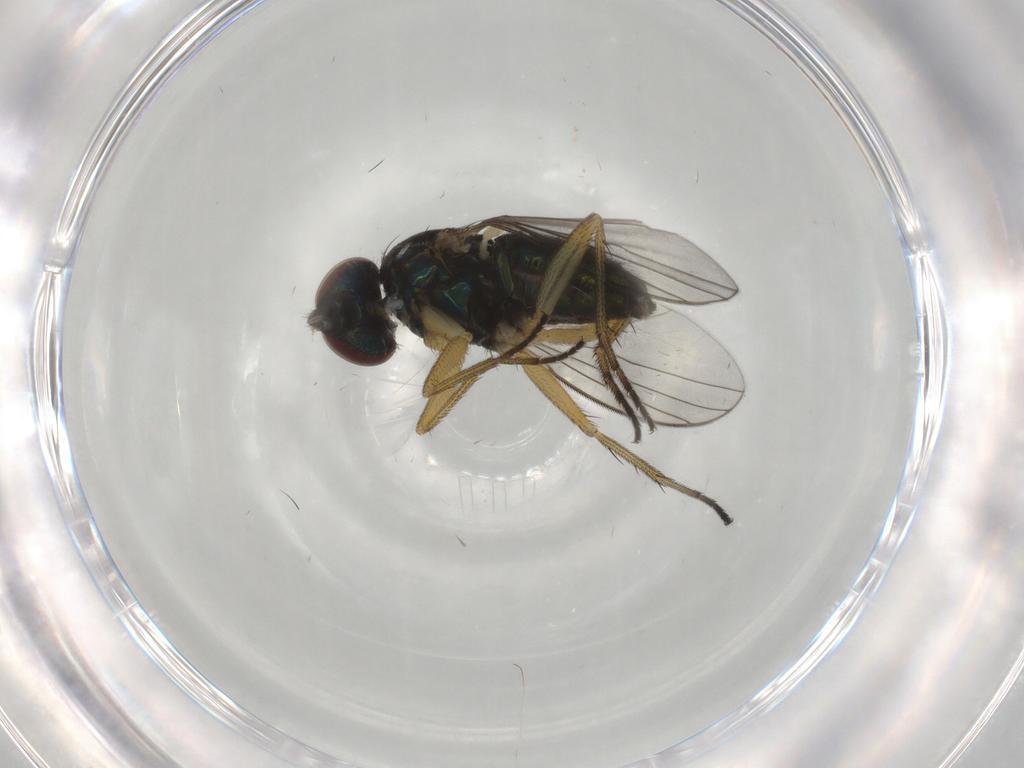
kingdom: Animalia
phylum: Arthropoda
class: Insecta
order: Diptera
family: Dolichopodidae
